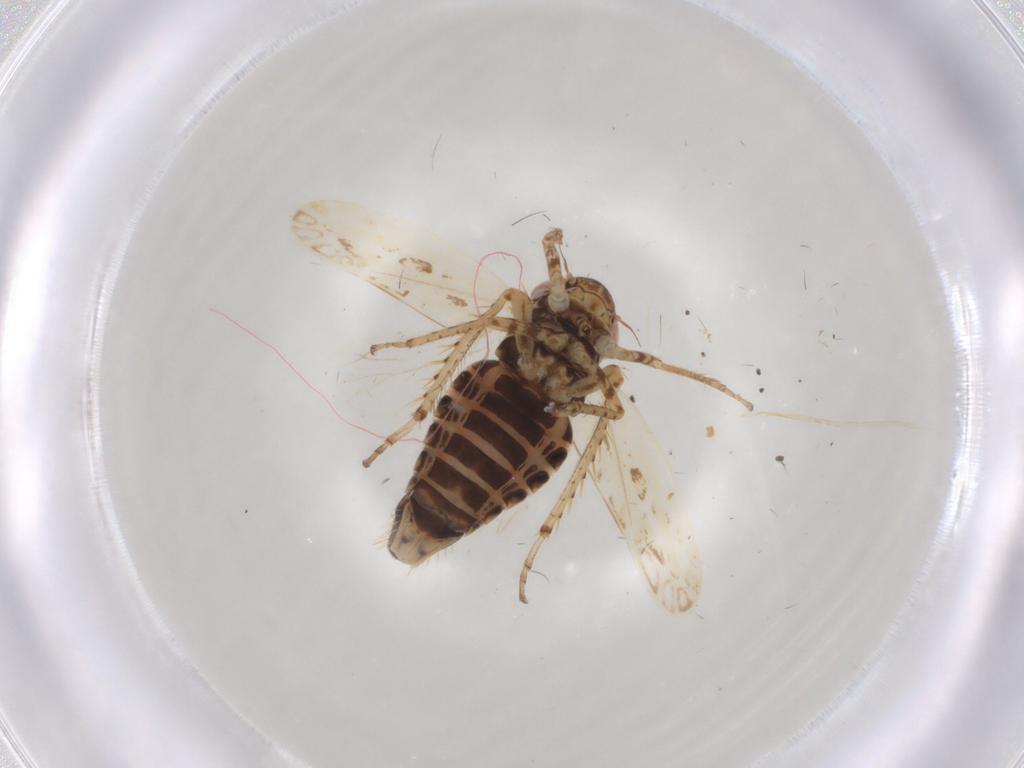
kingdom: Animalia
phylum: Arthropoda
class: Insecta
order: Hemiptera
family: Cicadellidae
